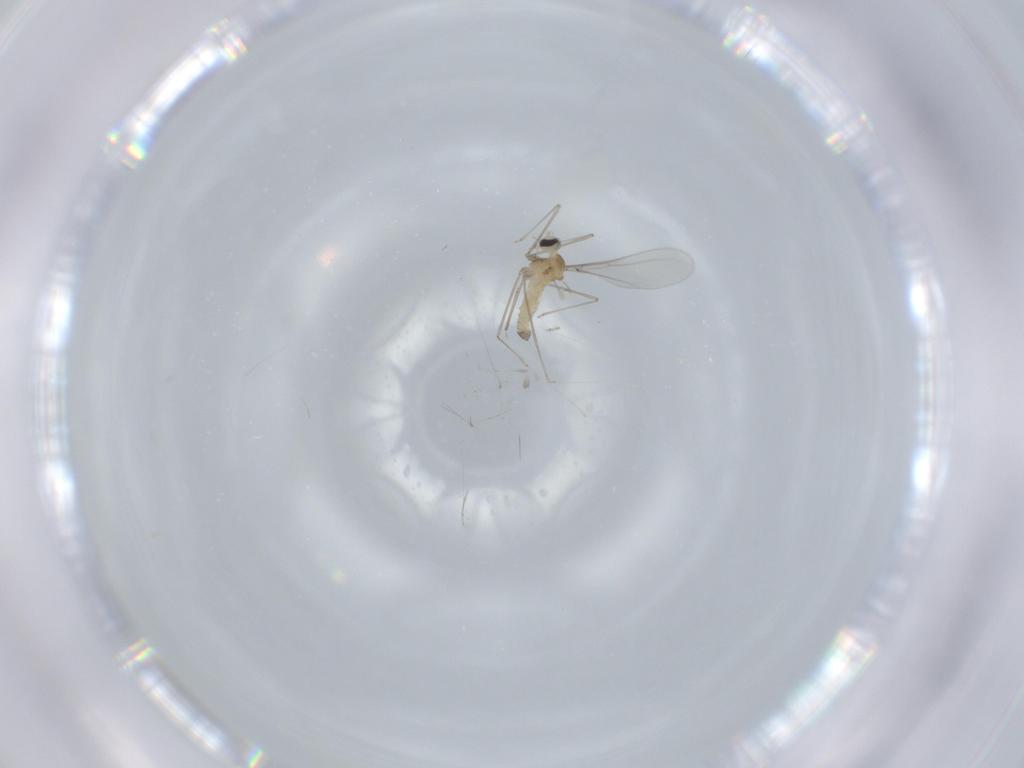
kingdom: Animalia
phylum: Arthropoda
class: Insecta
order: Diptera
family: Cecidomyiidae
